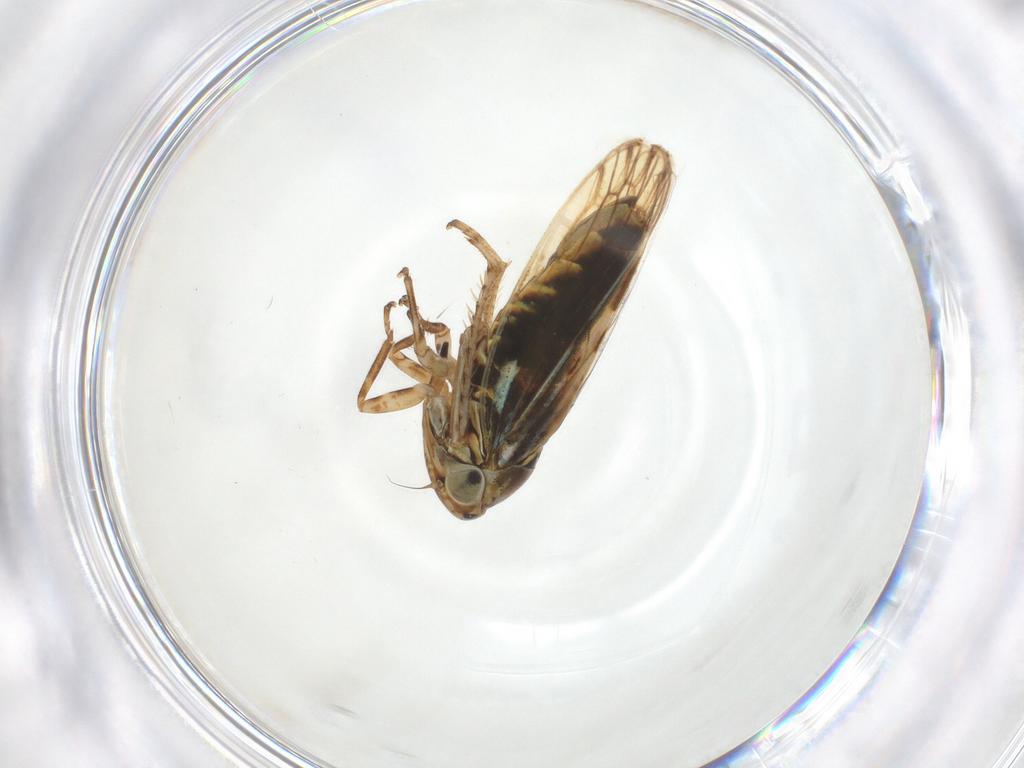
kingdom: Animalia
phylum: Arthropoda
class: Insecta
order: Hemiptera
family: Cicadellidae
